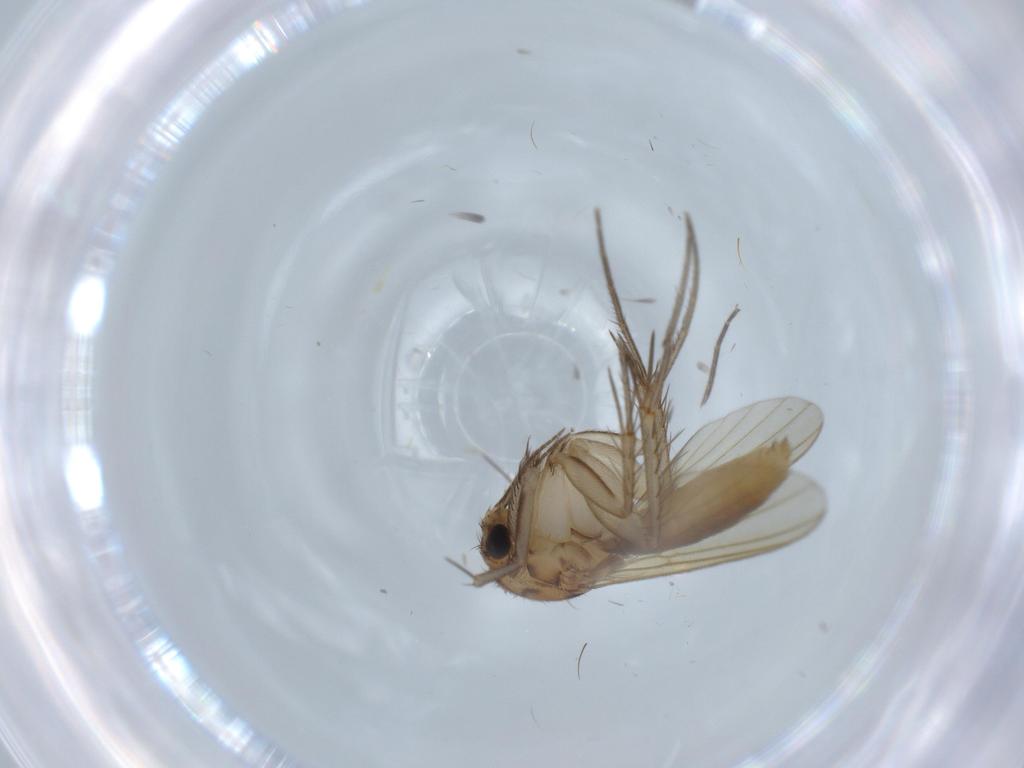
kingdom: Animalia
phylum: Arthropoda
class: Insecta
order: Diptera
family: Mycetophilidae
